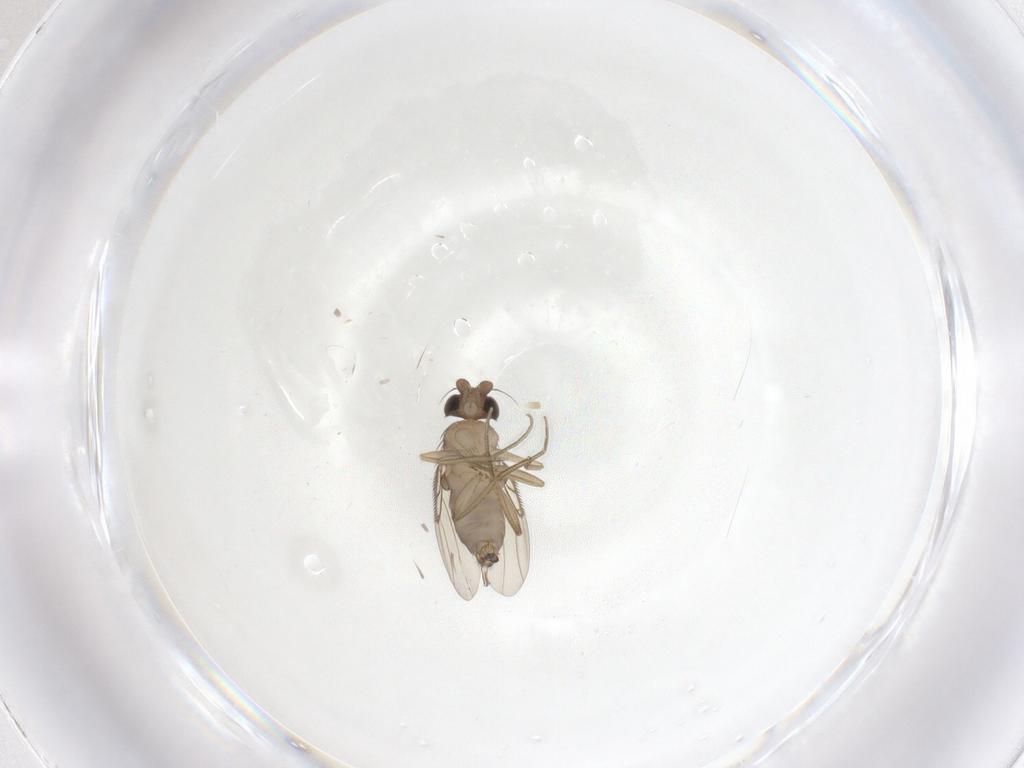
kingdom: Animalia
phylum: Arthropoda
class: Insecta
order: Diptera
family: Phoridae
